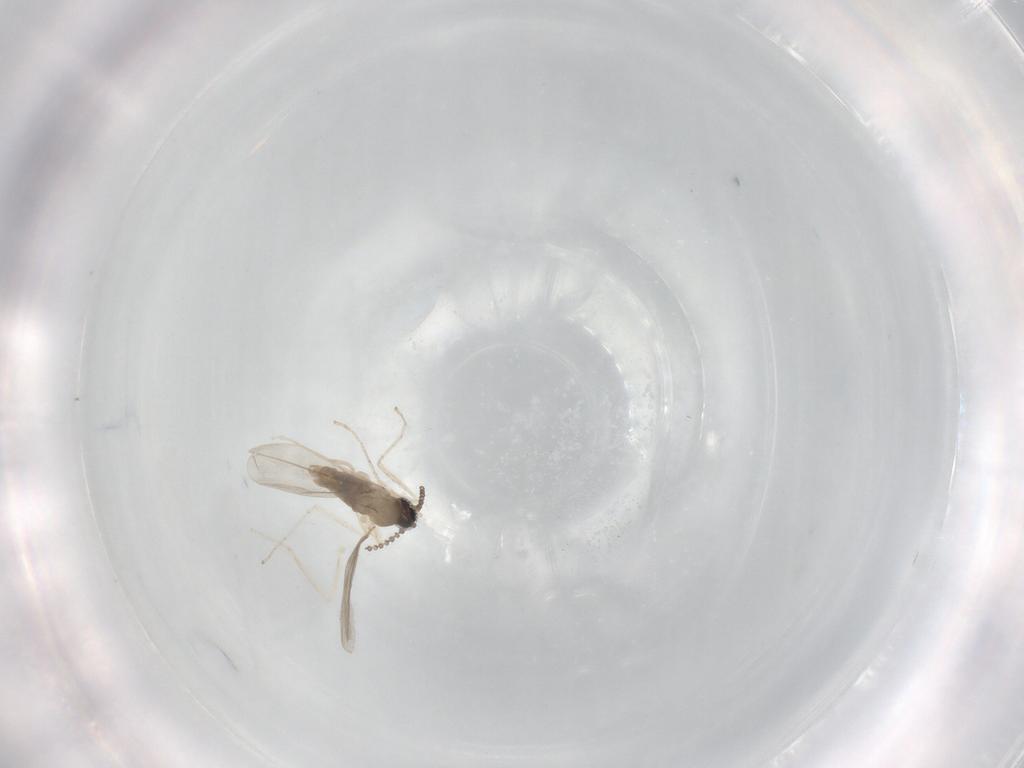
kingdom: Animalia
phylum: Arthropoda
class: Insecta
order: Diptera
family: Cecidomyiidae
